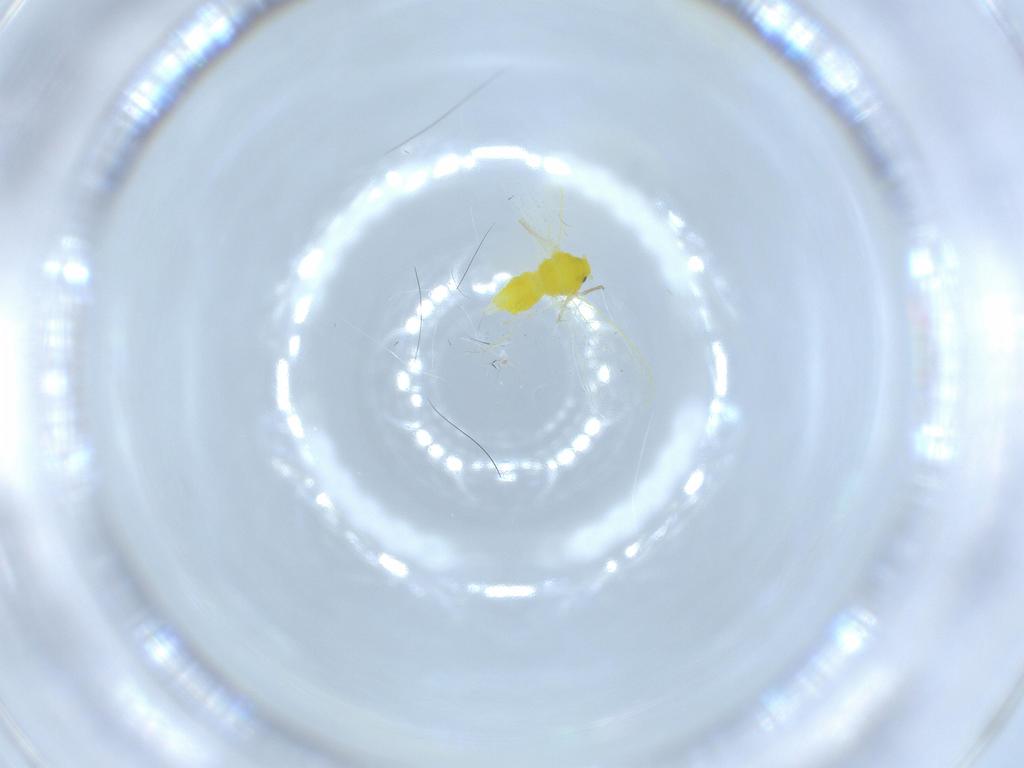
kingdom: Animalia
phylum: Arthropoda
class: Insecta
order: Hemiptera
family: Aleyrodidae
